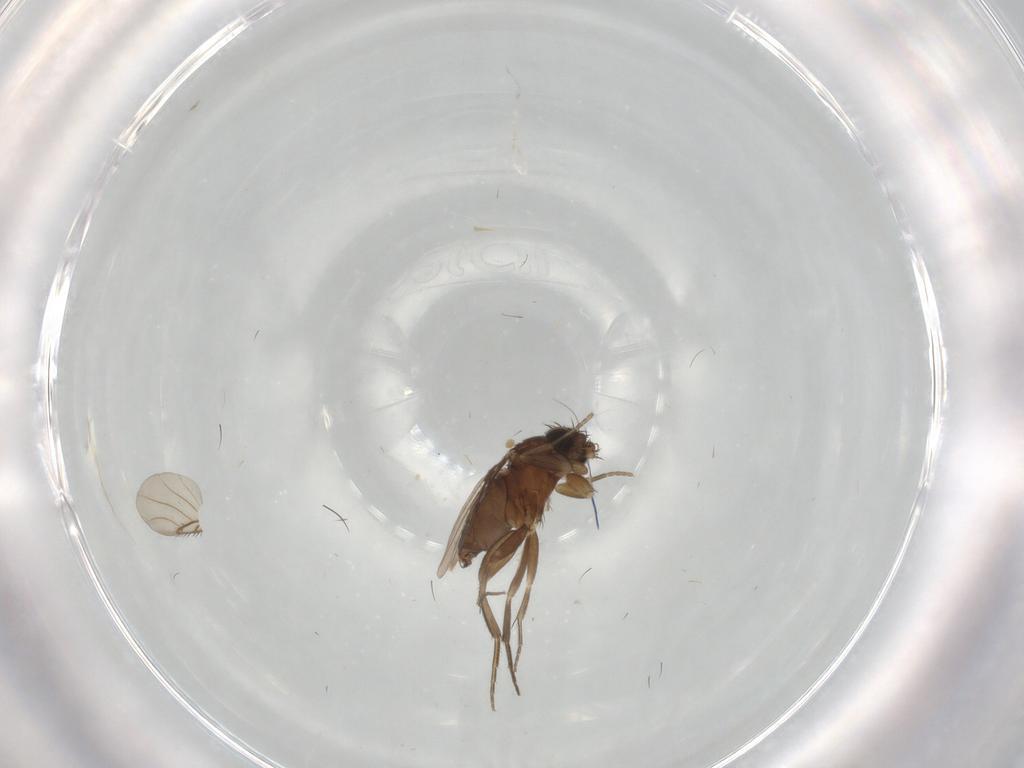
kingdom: Animalia
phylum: Arthropoda
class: Insecta
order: Diptera
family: Phoridae
